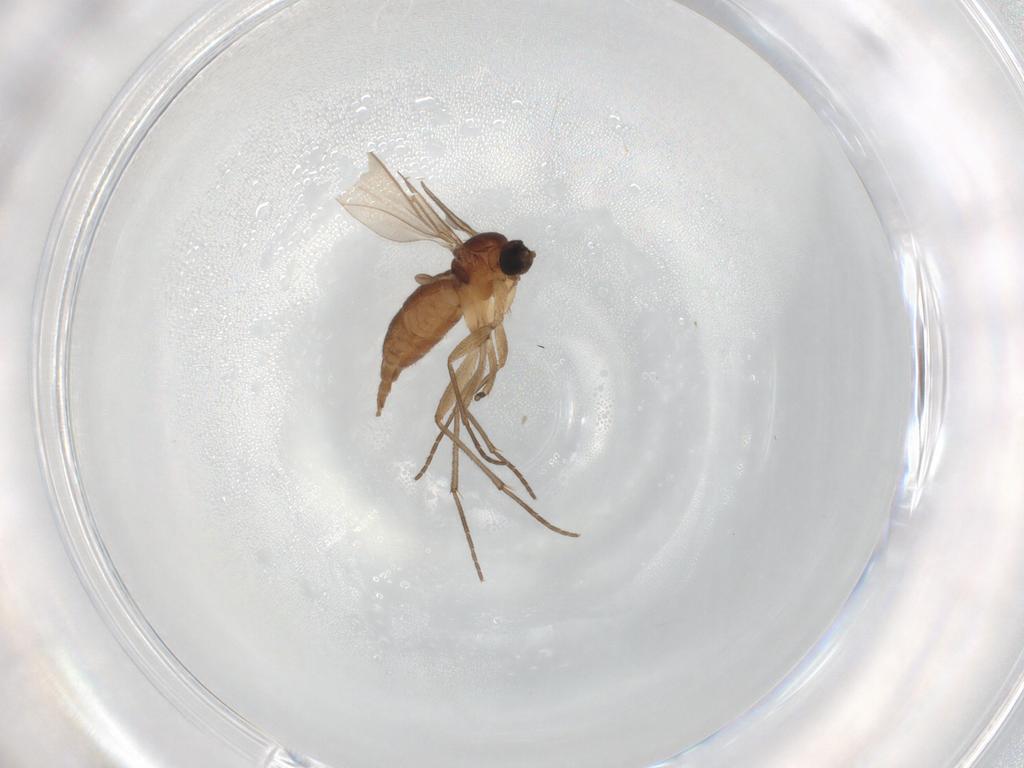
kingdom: Animalia
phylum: Arthropoda
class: Insecta
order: Diptera
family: Sciaridae
